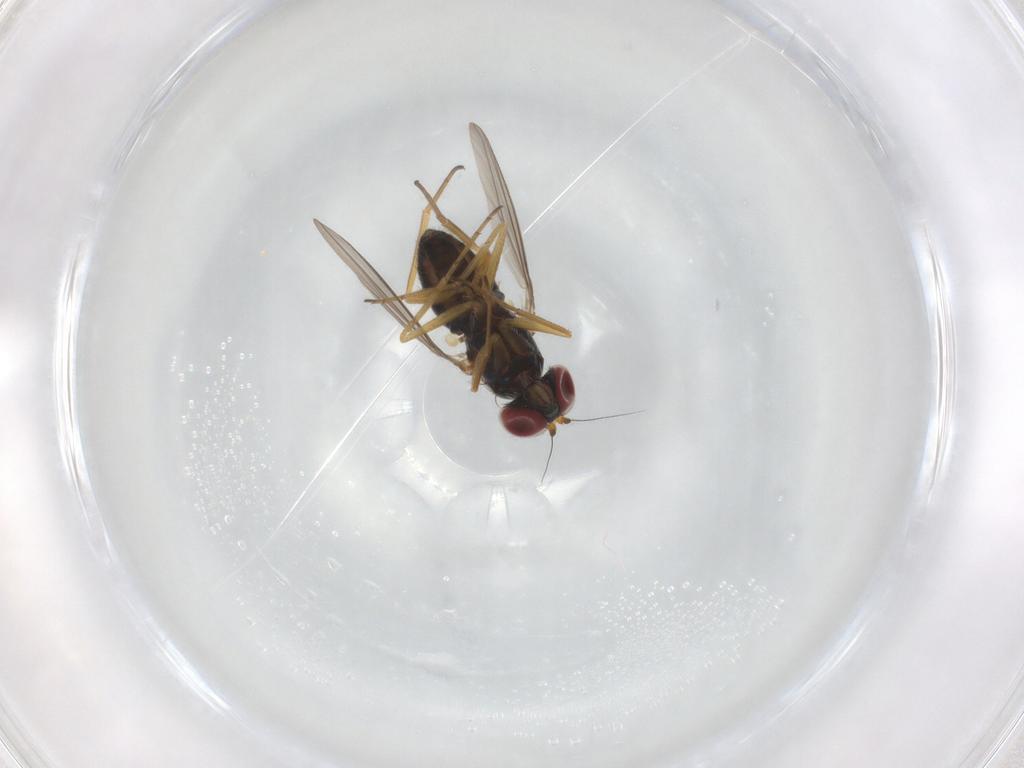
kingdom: Animalia
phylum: Arthropoda
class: Insecta
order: Diptera
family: Dolichopodidae
